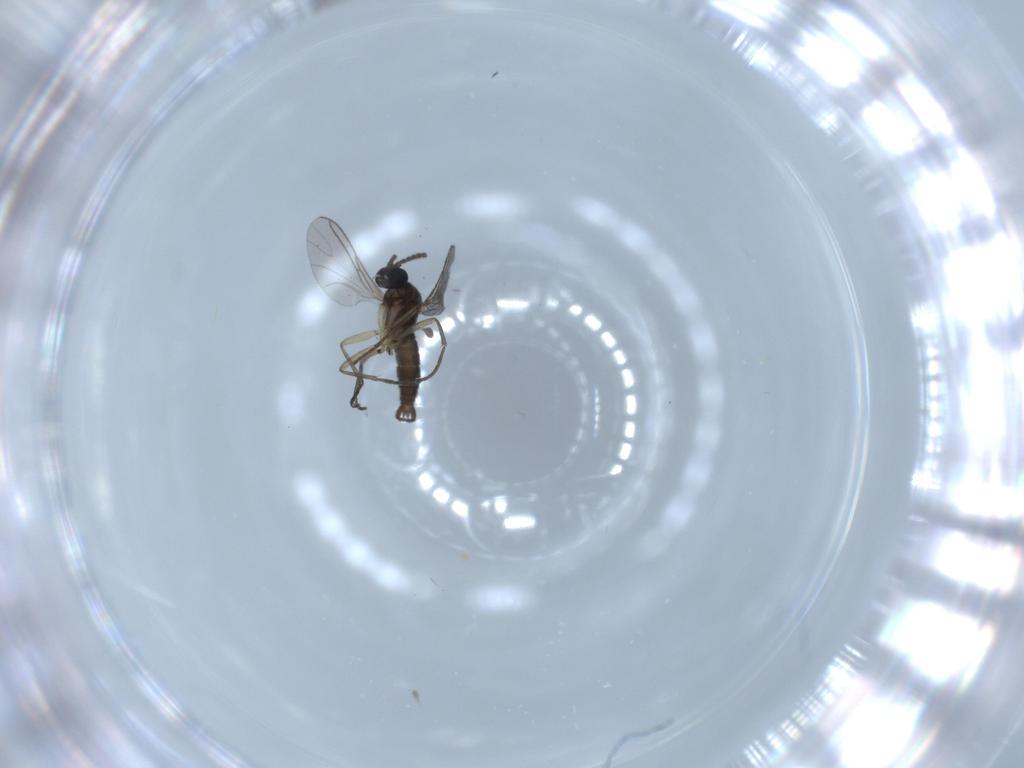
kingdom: Animalia
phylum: Arthropoda
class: Insecta
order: Diptera
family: Sciaridae
